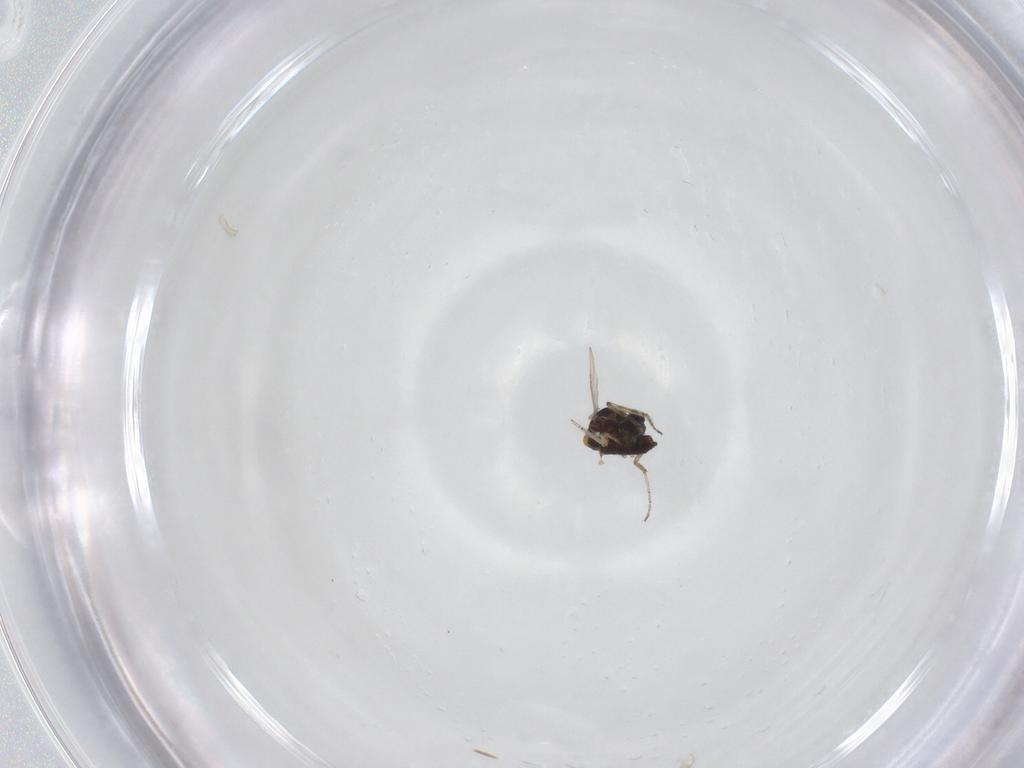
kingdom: Animalia
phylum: Arthropoda
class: Insecta
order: Diptera
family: Ceratopogonidae
